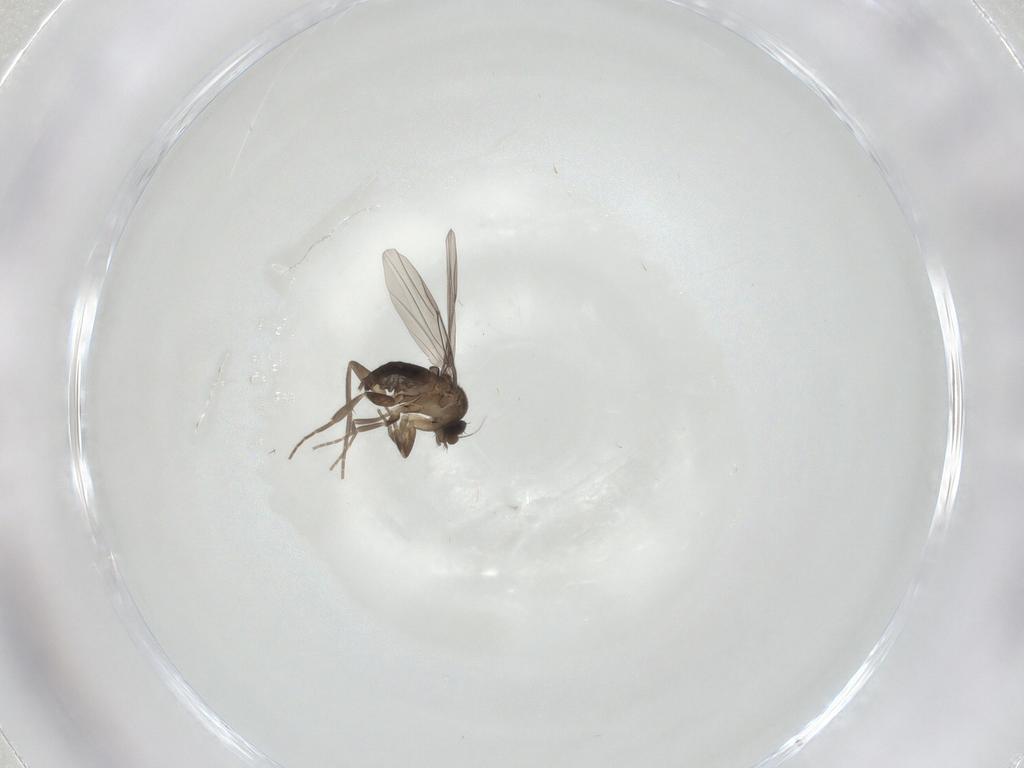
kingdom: Animalia
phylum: Arthropoda
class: Insecta
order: Diptera
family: Phoridae
